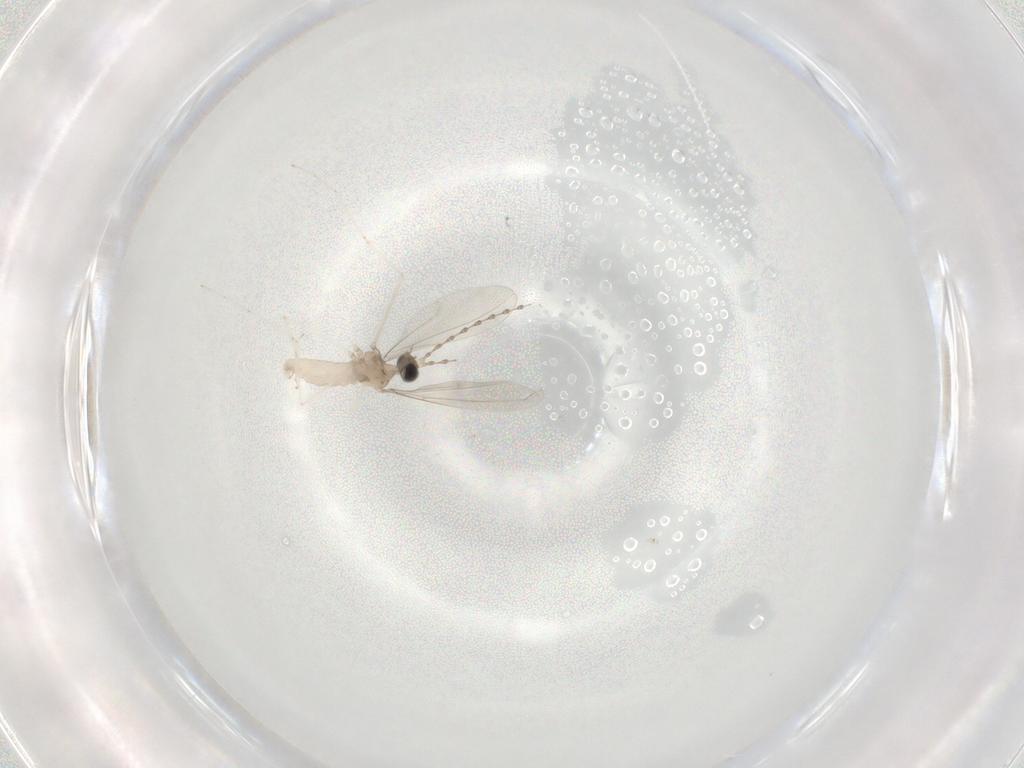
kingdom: Animalia
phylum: Arthropoda
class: Insecta
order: Diptera
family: Cecidomyiidae
